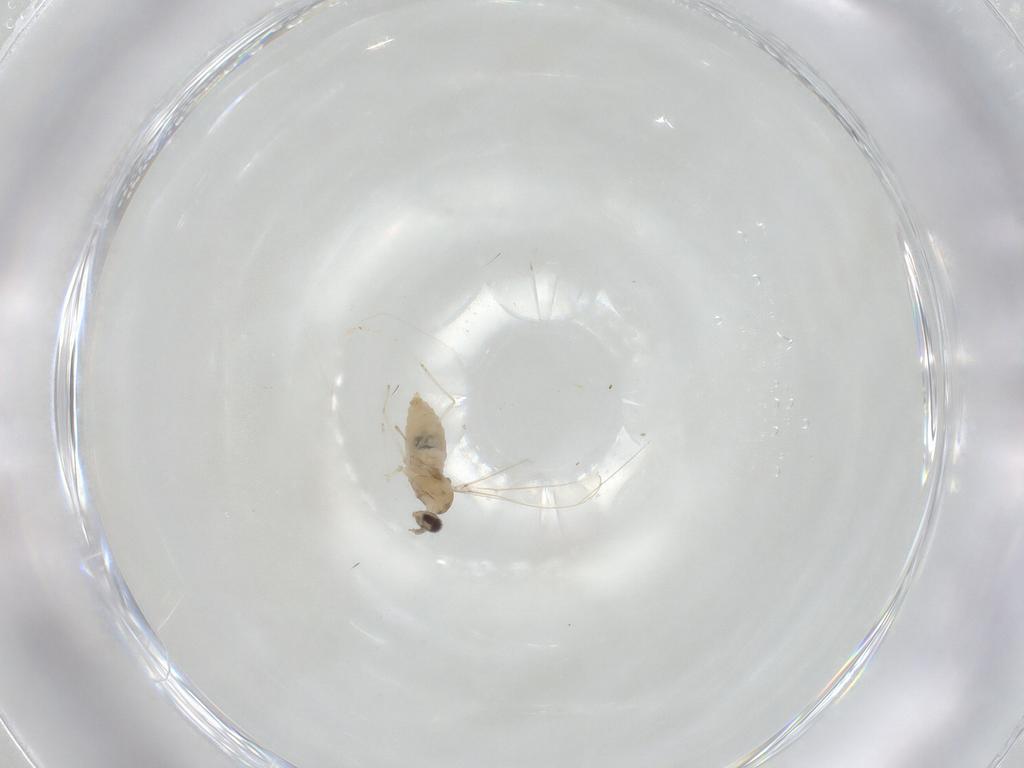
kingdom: Animalia
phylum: Arthropoda
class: Insecta
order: Diptera
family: Cecidomyiidae
